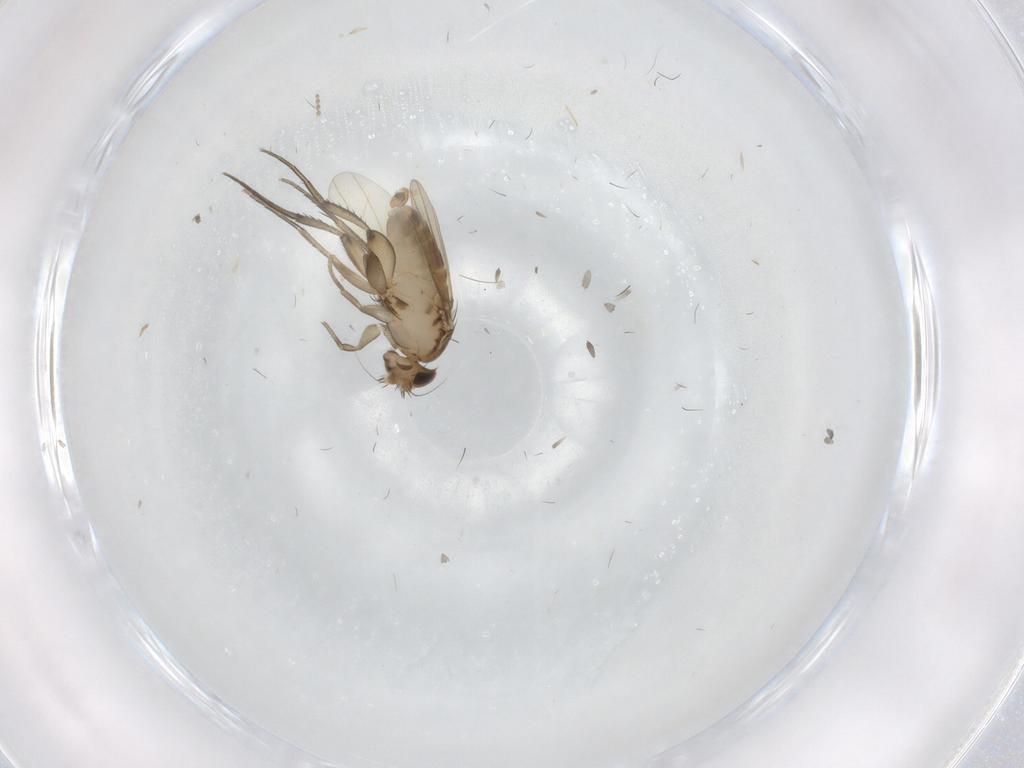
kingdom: Animalia
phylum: Arthropoda
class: Insecta
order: Diptera
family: Phoridae
